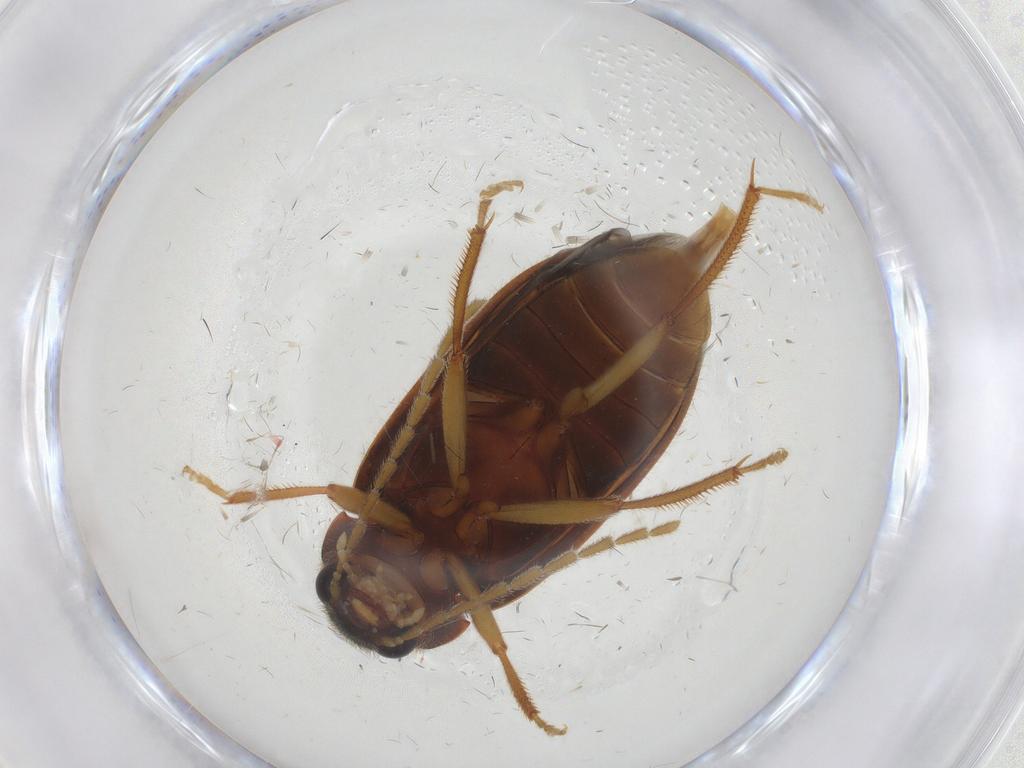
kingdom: Animalia
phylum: Arthropoda
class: Insecta
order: Coleoptera
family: Ptilodactylidae
